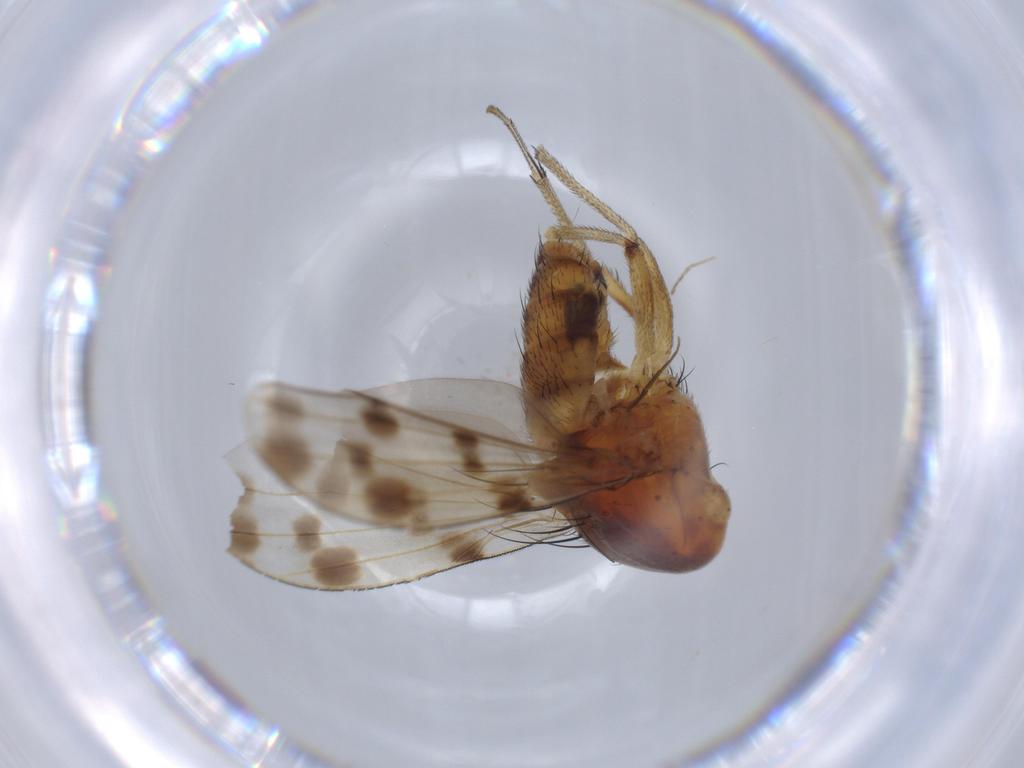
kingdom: Animalia
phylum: Arthropoda
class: Insecta
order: Diptera
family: Lauxaniidae
